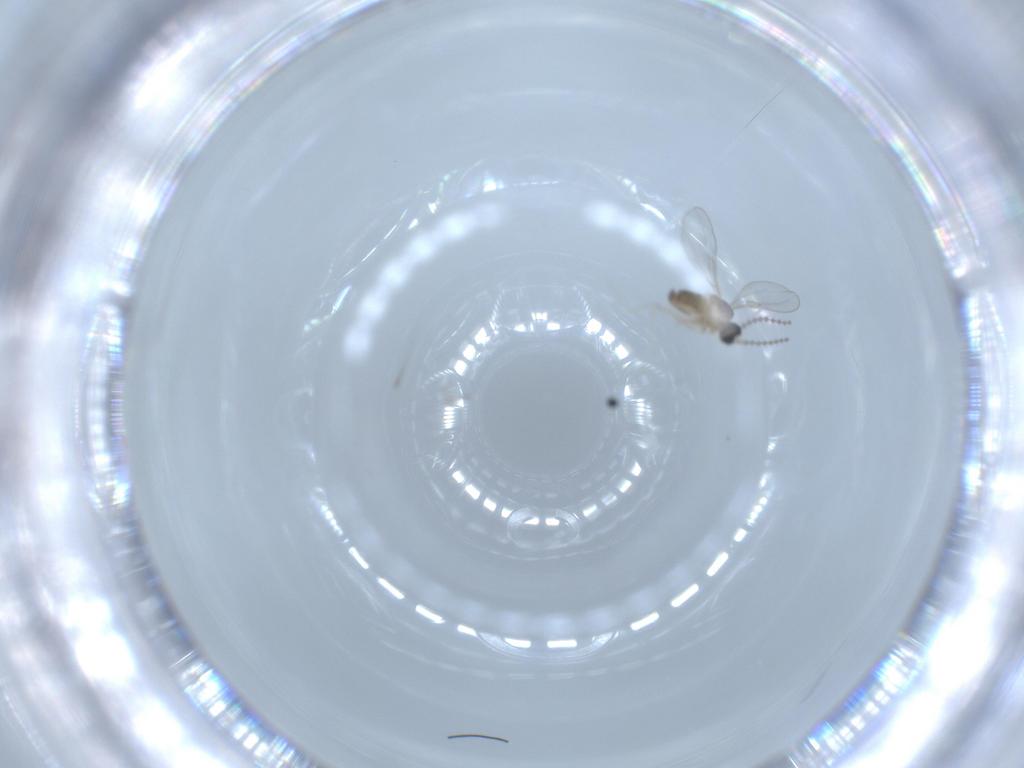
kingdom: Animalia
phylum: Arthropoda
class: Insecta
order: Diptera
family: Cecidomyiidae
